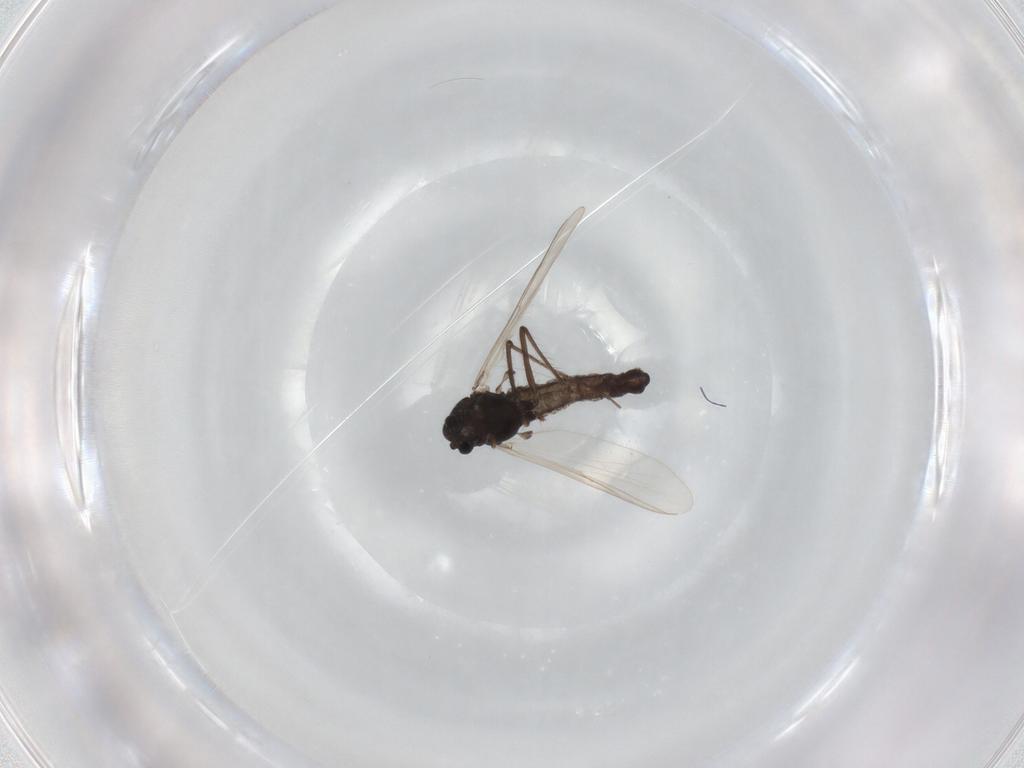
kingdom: Animalia
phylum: Arthropoda
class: Insecta
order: Diptera
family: Chironomidae
